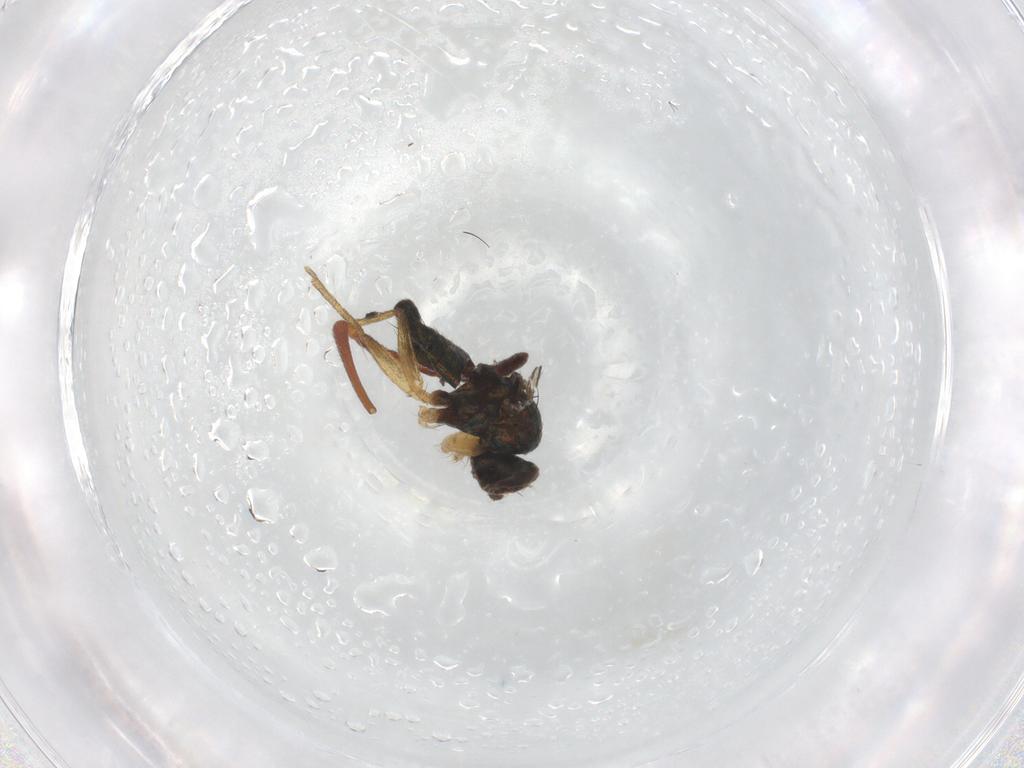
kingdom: Animalia
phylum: Arthropoda
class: Insecta
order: Diptera
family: Dolichopodidae
